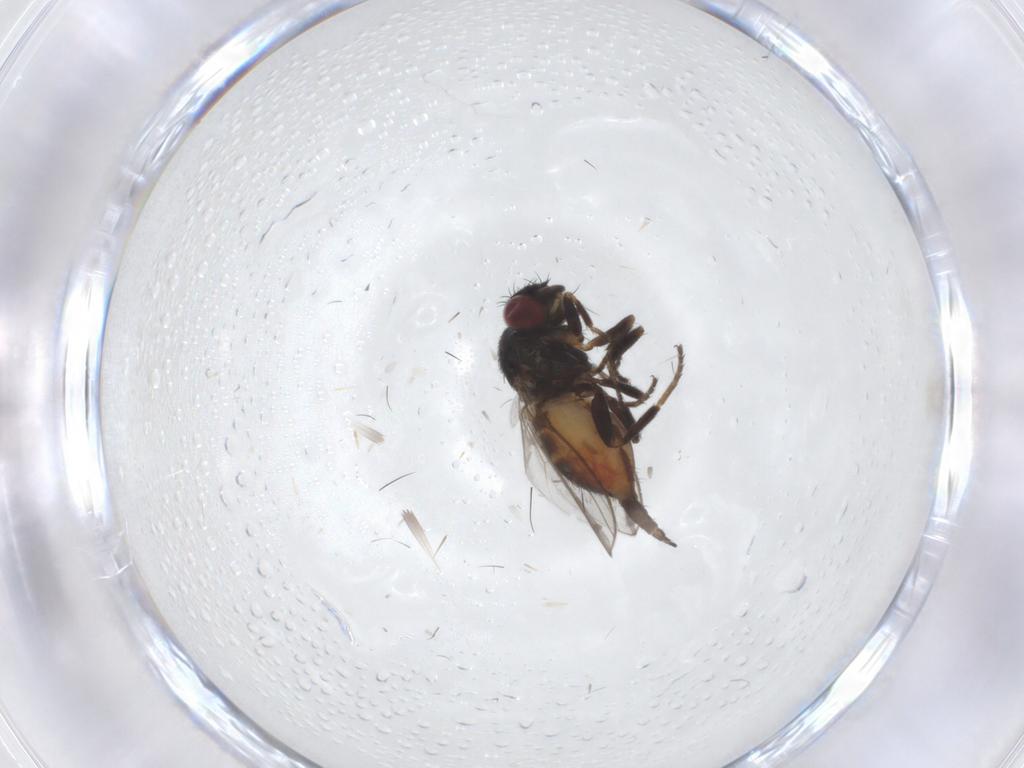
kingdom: Animalia
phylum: Arthropoda
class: Insecta
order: Diptera
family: Milichiidae
